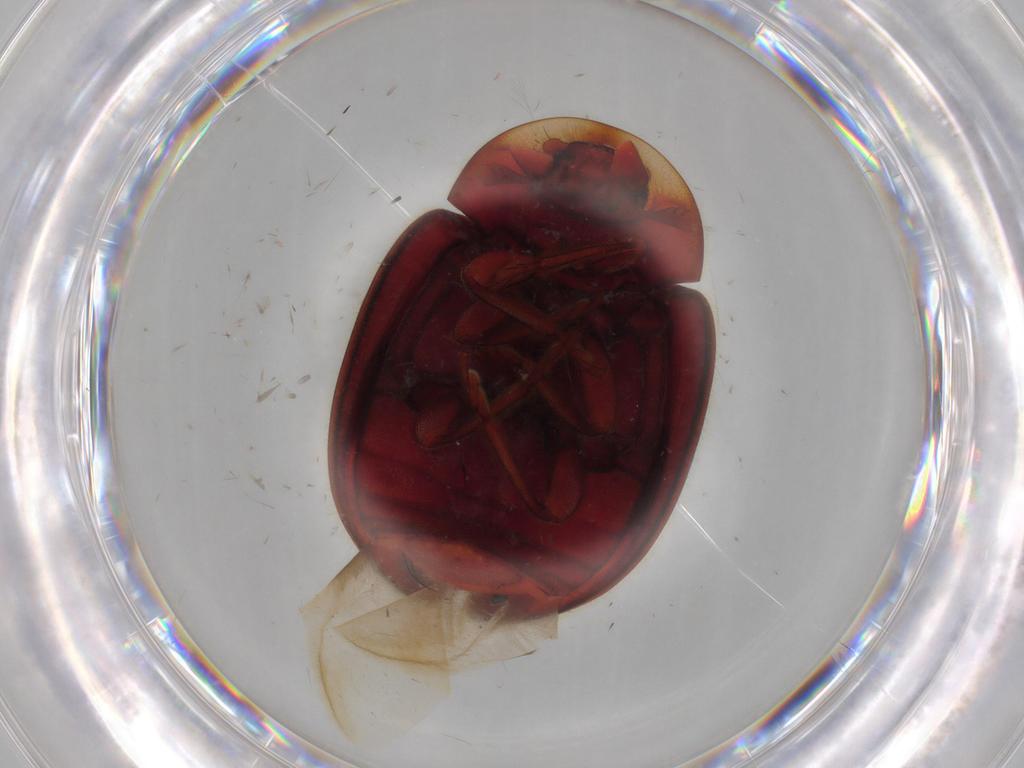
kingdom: Animalia
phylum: Arthropoda
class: Insecta
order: Coleoptera
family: Coccinellidae
